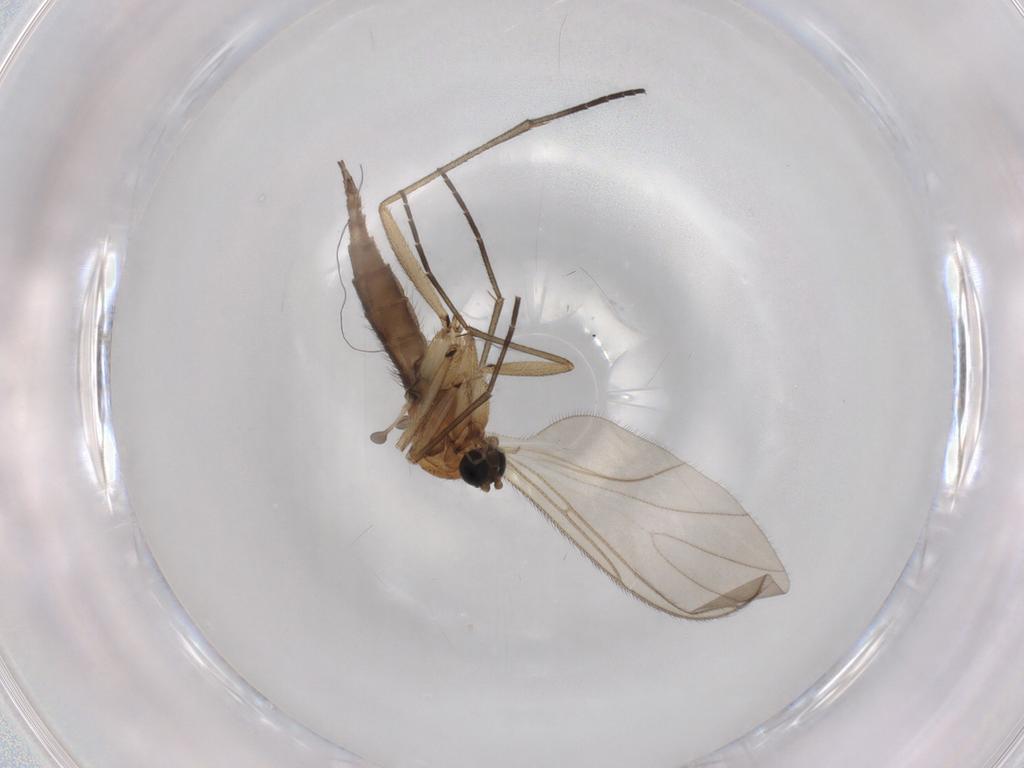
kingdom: Animalia
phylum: Arthropoda
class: Insecta
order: Diptera
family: Sciaridae
